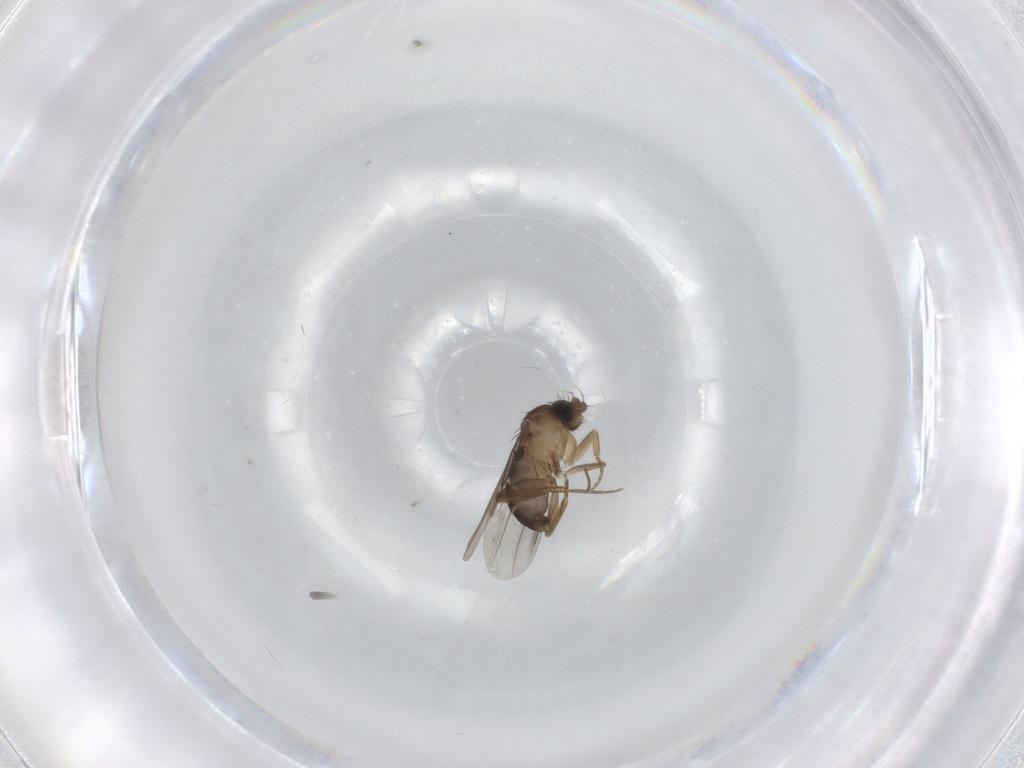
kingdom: Animalia
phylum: Arthropoda
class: Insecta
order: Diptera
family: Cecidomyiidae
